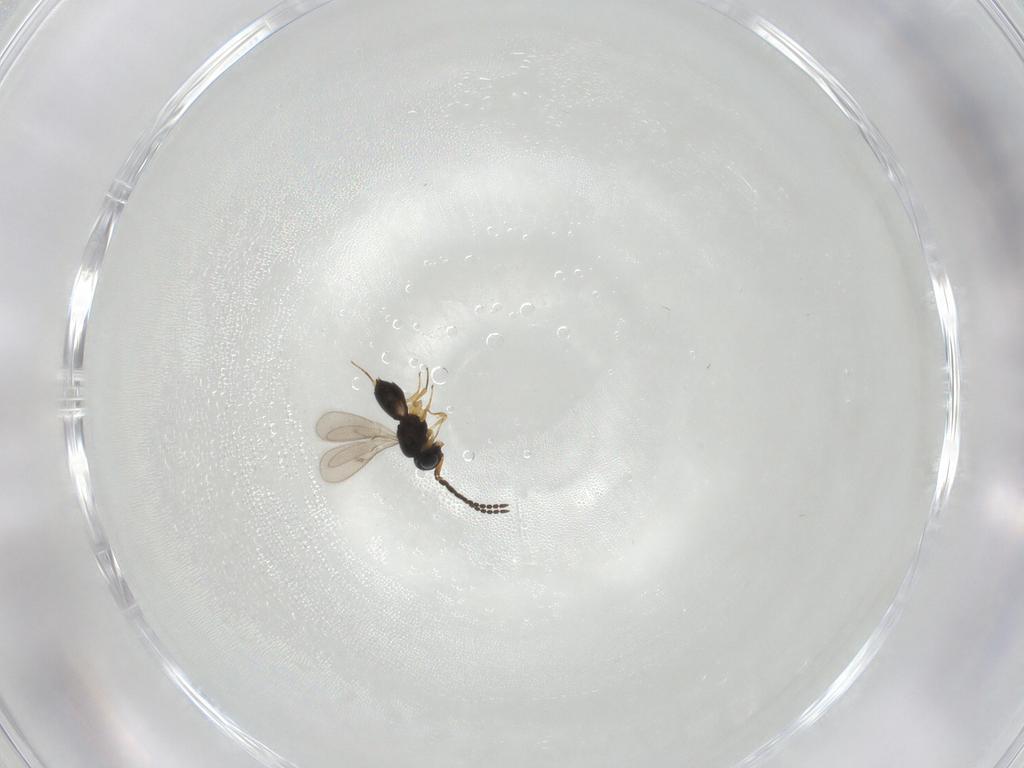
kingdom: Animalia
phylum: Arthropoda
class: Insecta
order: Hymenoptera
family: Scelionidae
